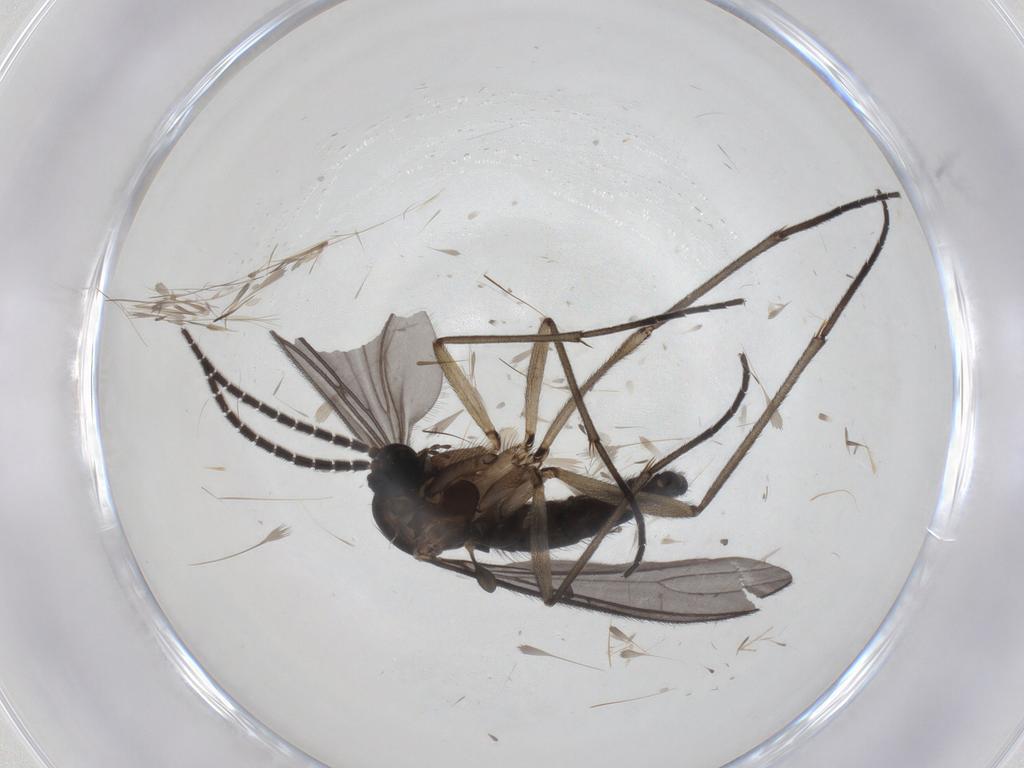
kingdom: Animalia
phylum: Arthropoda
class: Insecta
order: Diptera
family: Sciaridae
